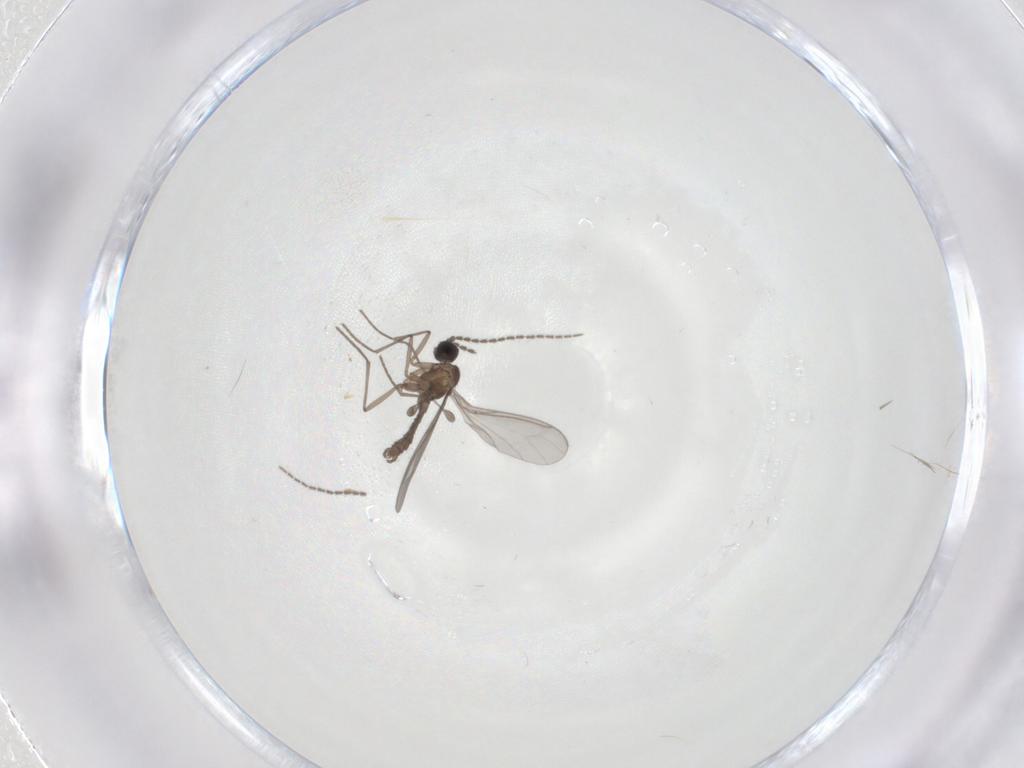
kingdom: Animalia
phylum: Arthropoda
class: Insecta
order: Diptera
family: Sciaridae
